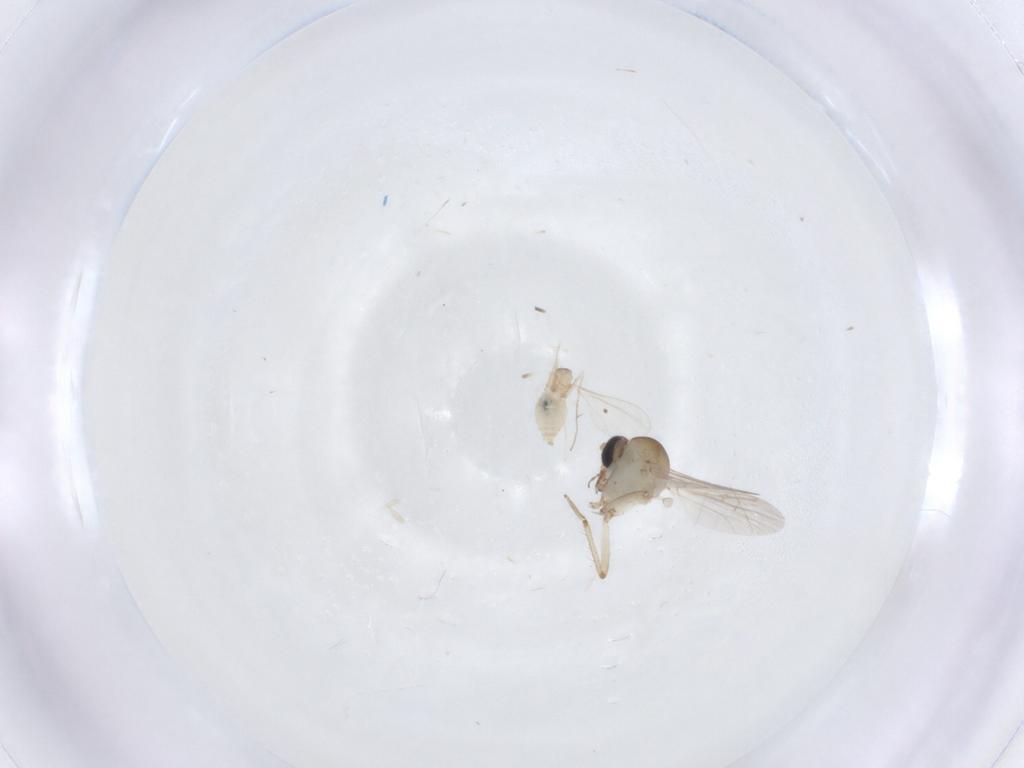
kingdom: Animalia
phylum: Arthropoda
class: Insecta
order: Diptera
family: Cecidomyiidae
